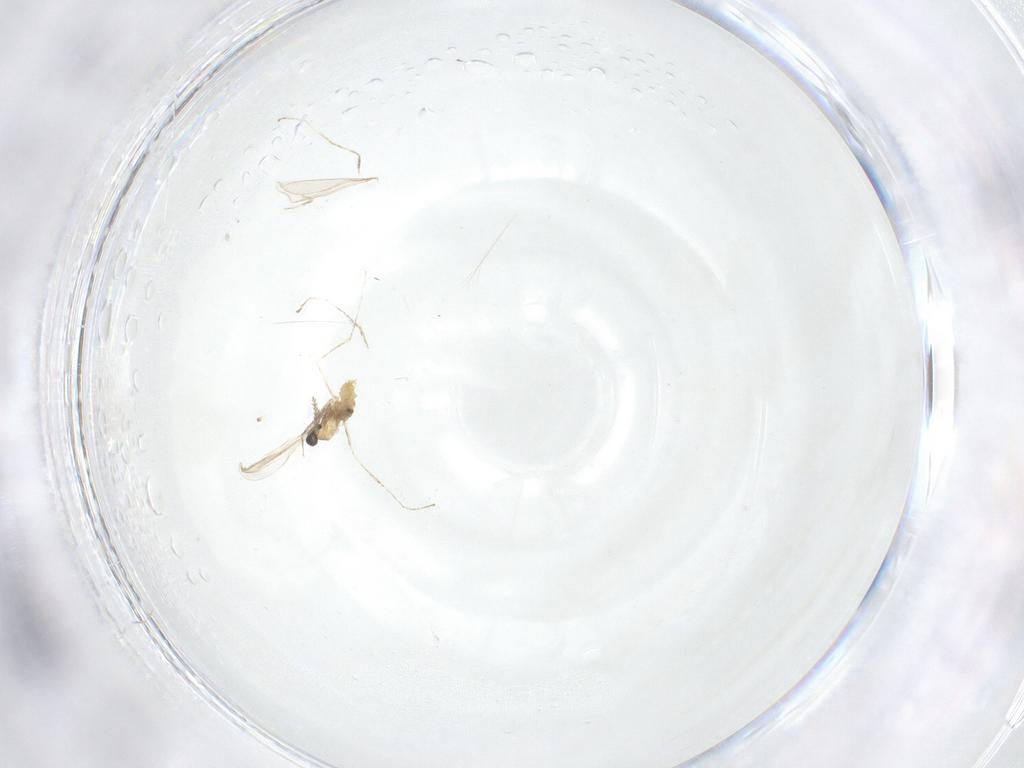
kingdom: Animalia
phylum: Arthropoda
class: Insecta
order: Diptera
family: Cecidomyiidae
